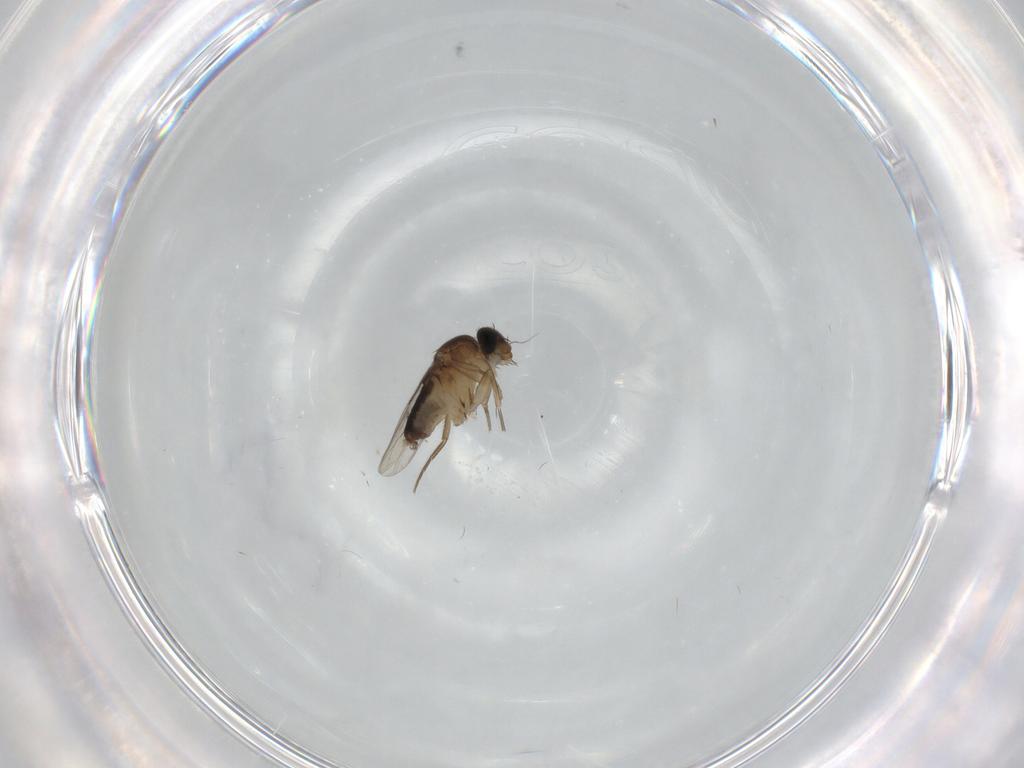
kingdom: Animalia
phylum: Arthropoda
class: Insecta
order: Diptera
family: Phoridae
